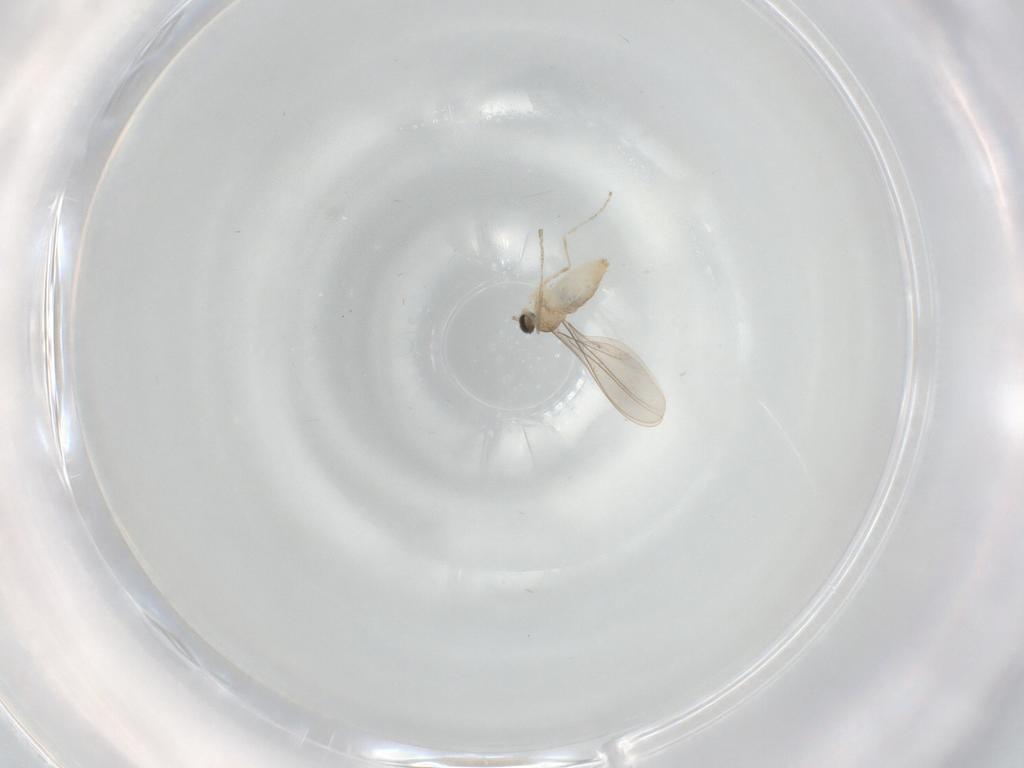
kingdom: Animalia
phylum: Arthropoda
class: Insecta
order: Diptera
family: Cecidomyiidae
